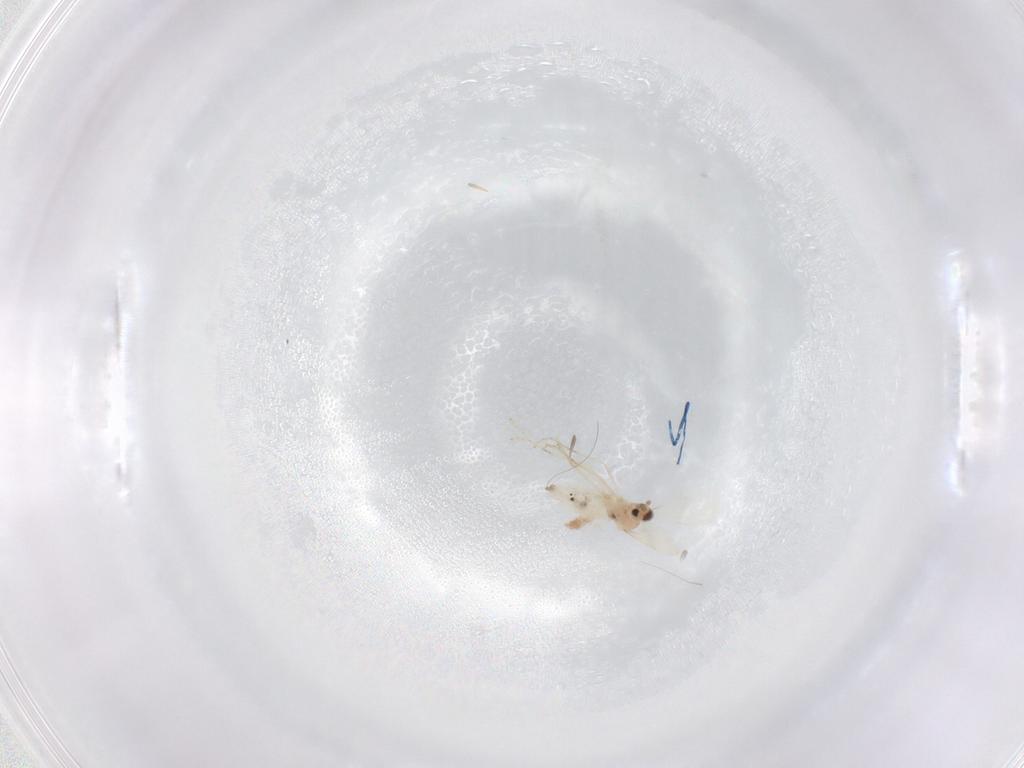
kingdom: Animalia
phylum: Arthropoda
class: Insecta
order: Diptera
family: Cecidomyiidae
